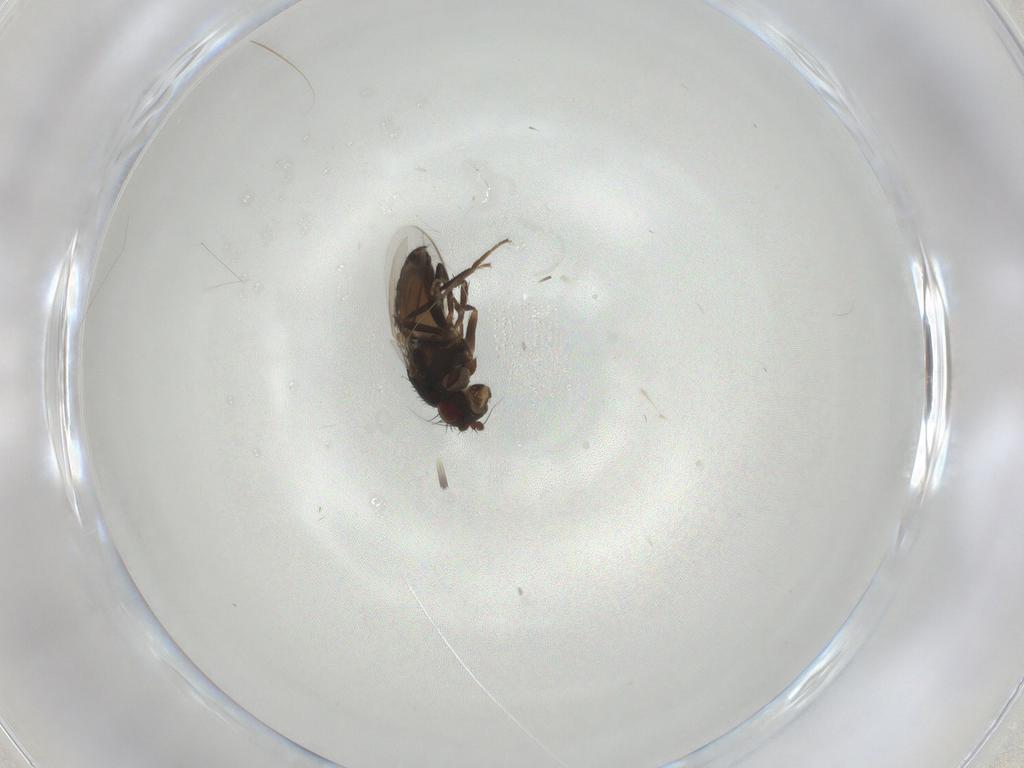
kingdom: Animalia
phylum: Arthropoda
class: Insecta
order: Diptera
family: Sphaeroceridae
